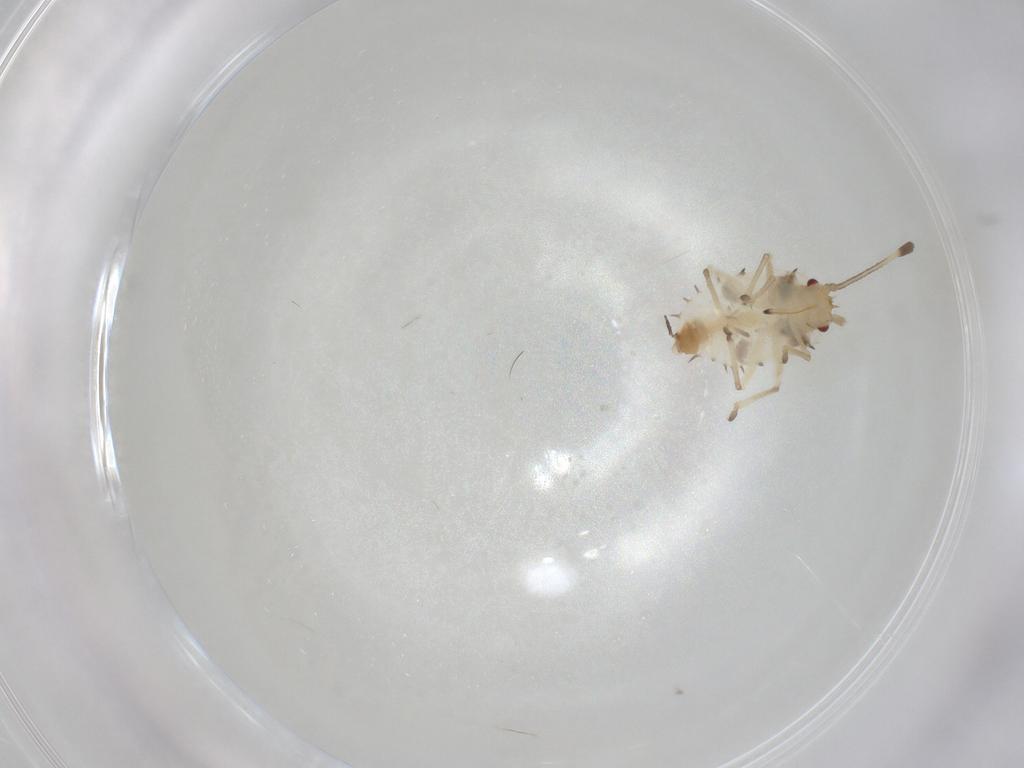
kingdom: Animalia
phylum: Arthropoda
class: Insecta
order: Hemiptera
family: Tingidae
